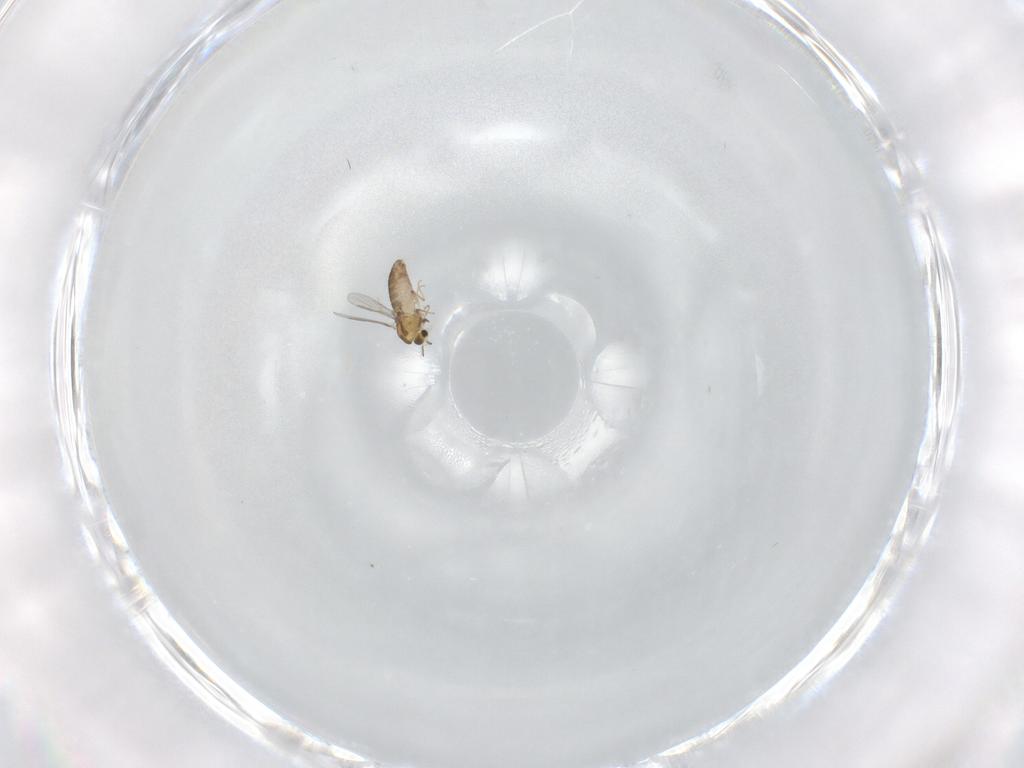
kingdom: Animalia
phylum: Arthropoda
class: Insecta
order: Diptera
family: Chironomidae
